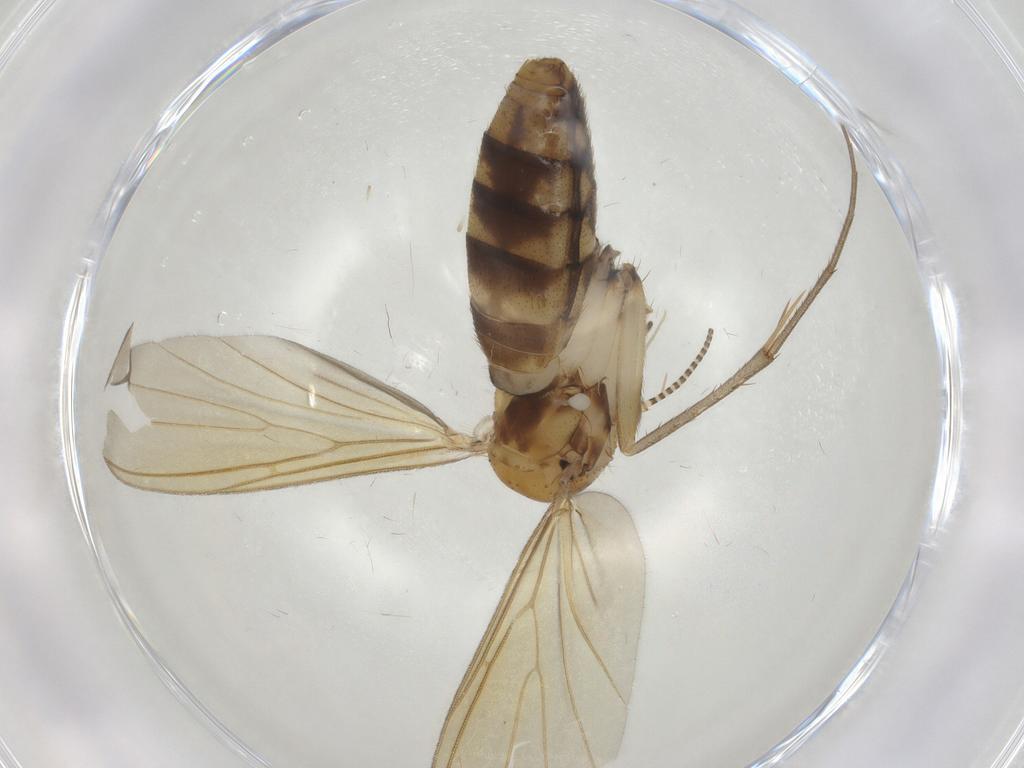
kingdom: Animalia
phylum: Arthropoda
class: Insecta
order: Diptera
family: Mycetophilidae
